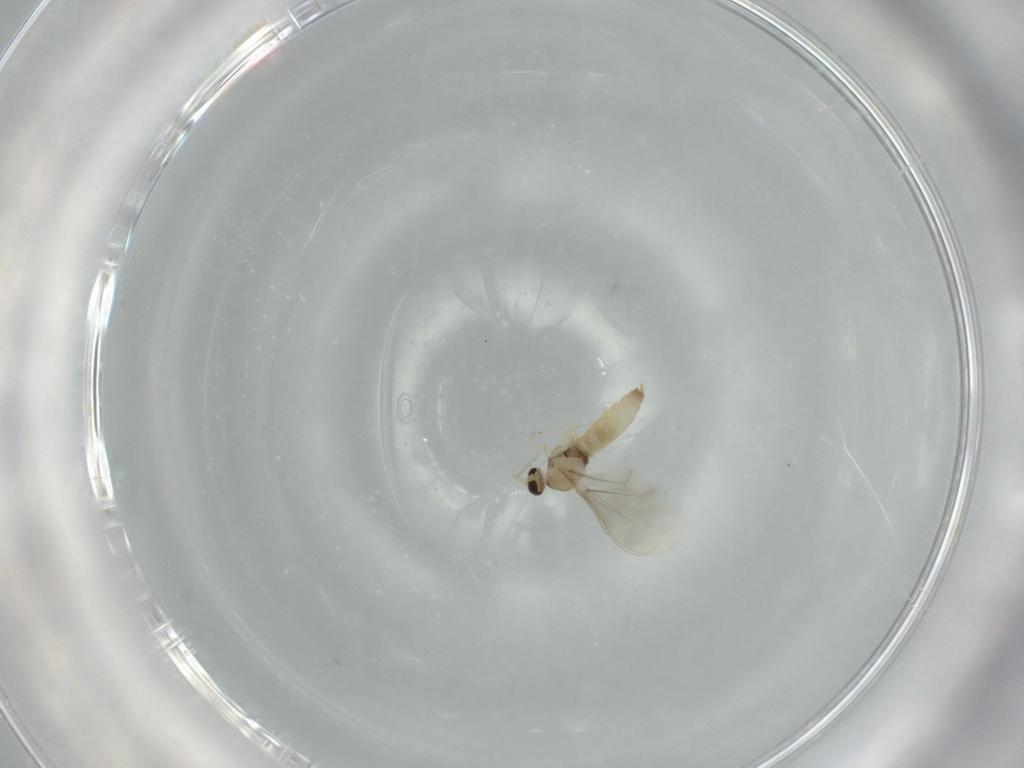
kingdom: Animalia
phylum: Arthropoda
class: Insecta
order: Diptera
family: Cecidomyiidae
